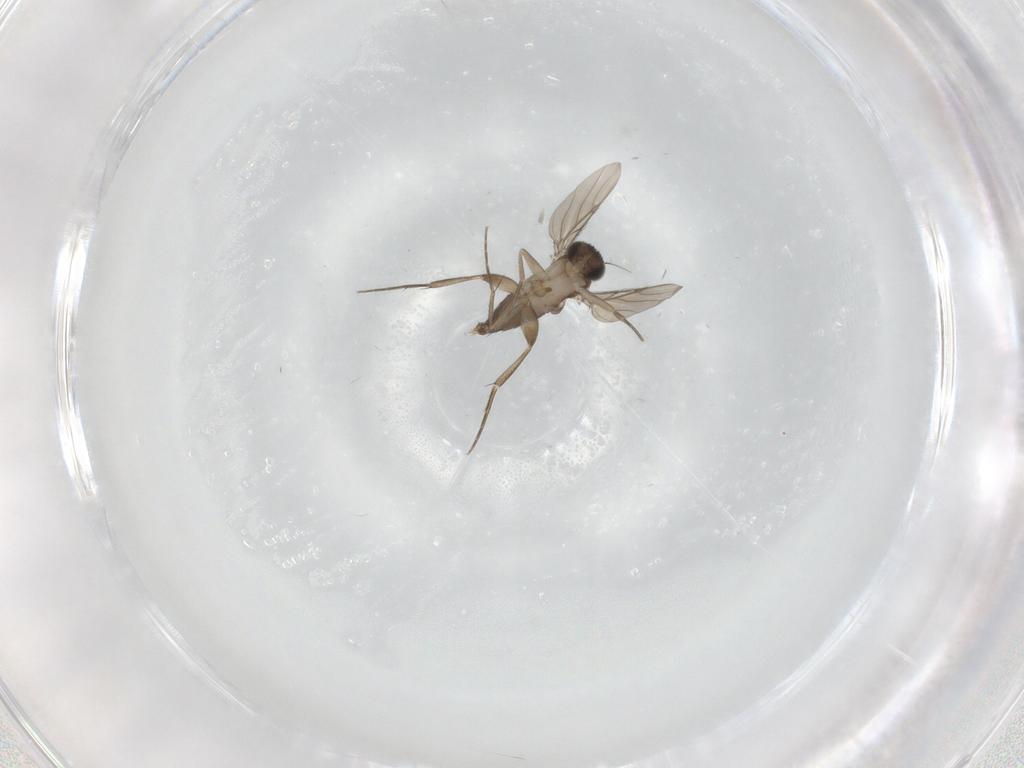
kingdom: Animalia
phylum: Arthropoda
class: Insecta
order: Diptera
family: Phoridae
